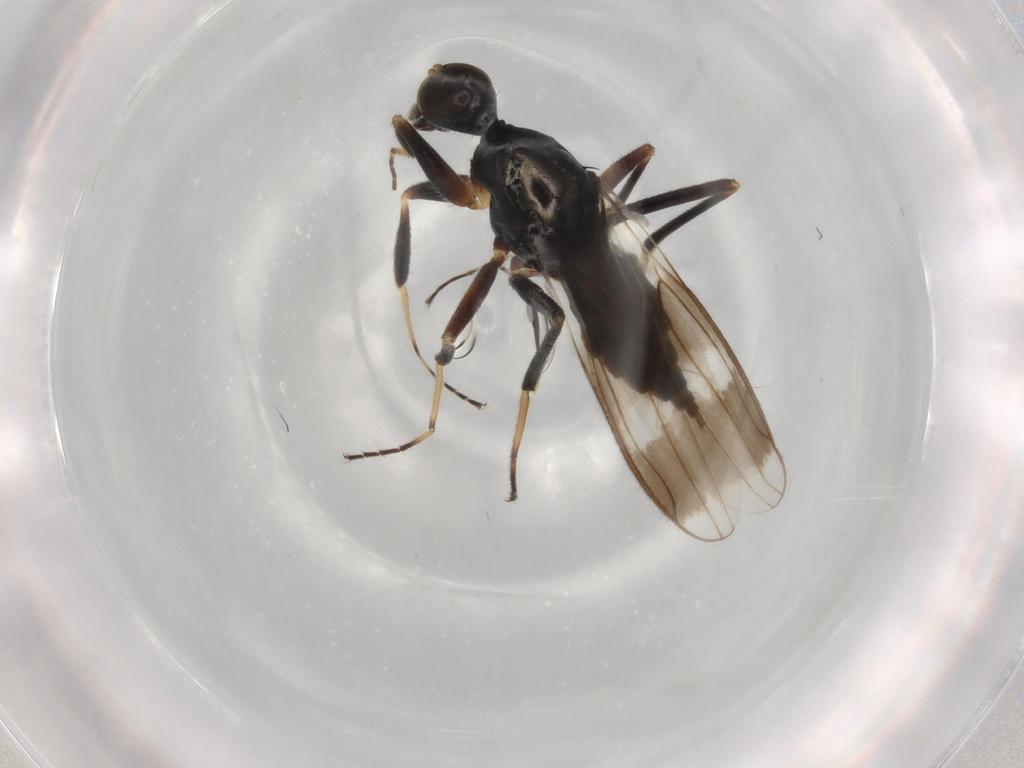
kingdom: Animalia
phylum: Arthropoda
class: Insecta
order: Diptera
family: Hybotidae
